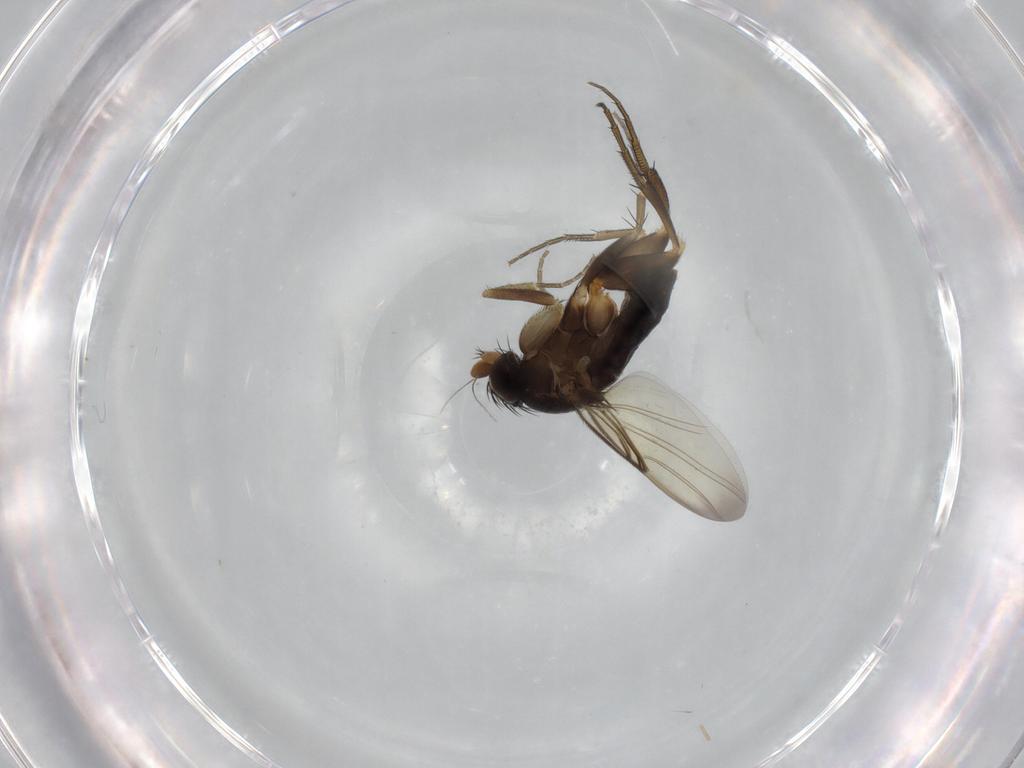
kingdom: Animalia
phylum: Arthropoda
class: Insecta
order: Diptera
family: Phoridae
